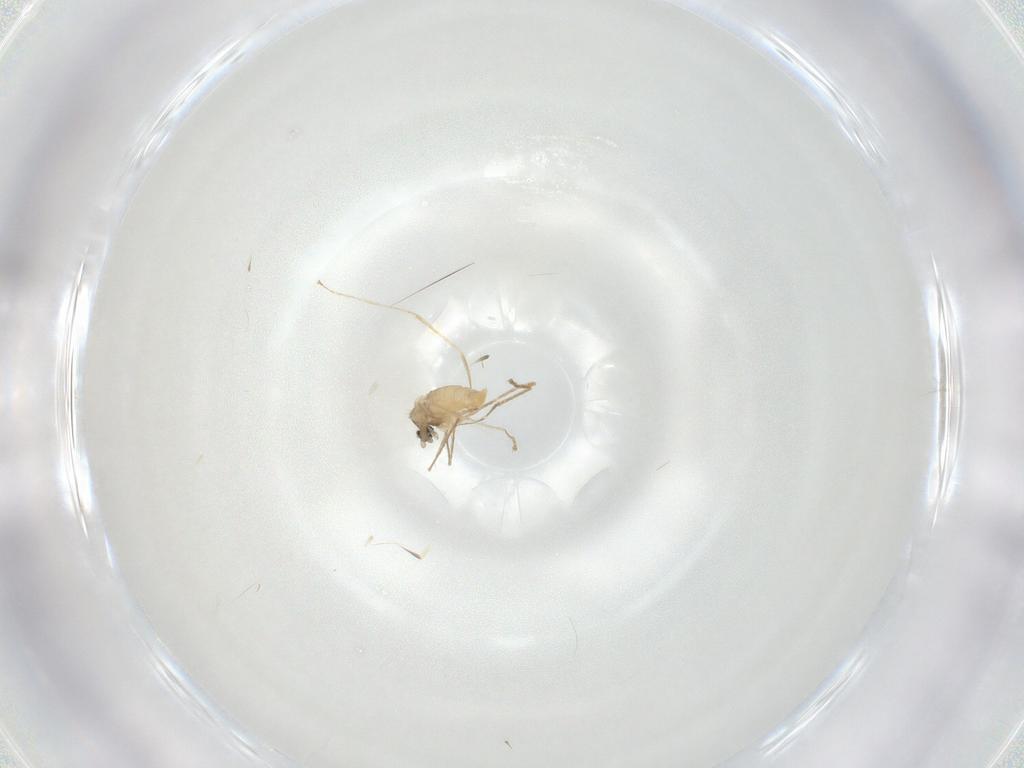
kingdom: Animalia
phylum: Arthropoda
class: Insecta
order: Diptera
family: Cecidomyiidae
